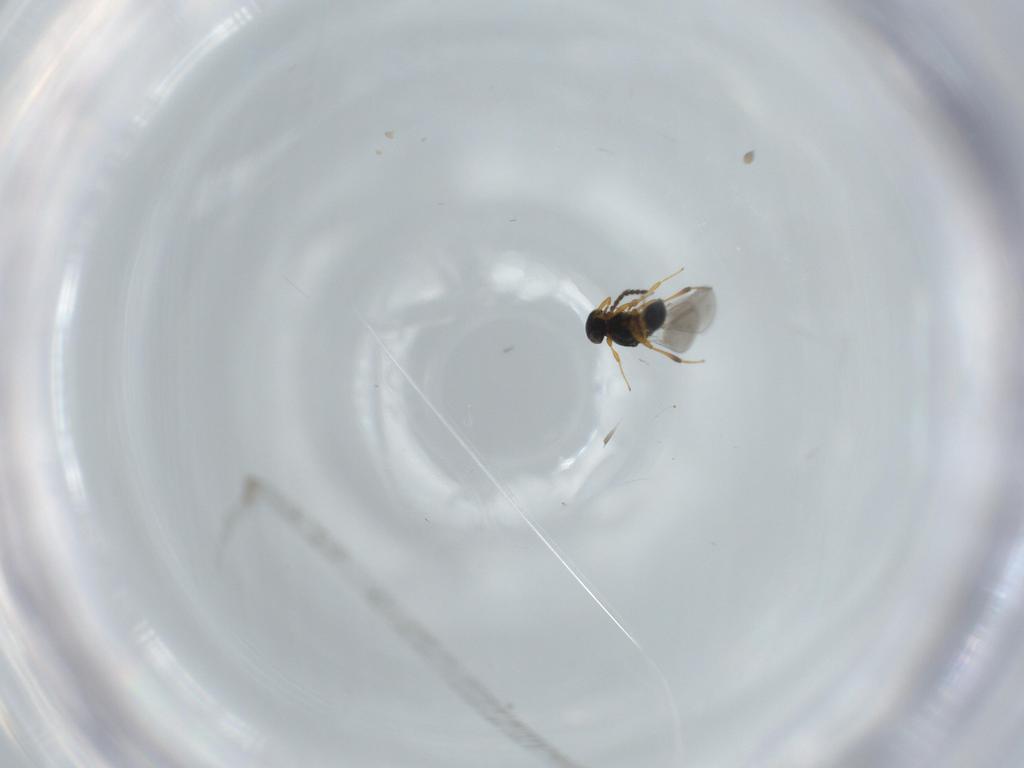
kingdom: Animalia
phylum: Arthropoda
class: Insecta
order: Hymenoptera
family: Platygastridae
